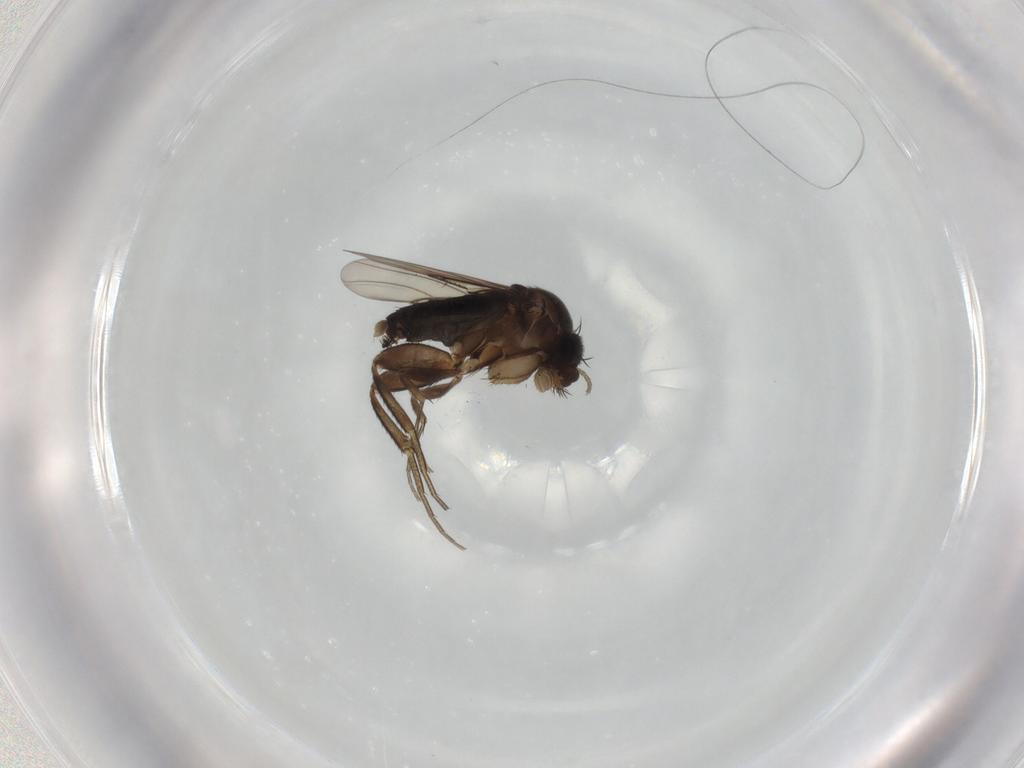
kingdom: Animalia
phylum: Arthropoda
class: Insecta
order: Diptera
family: Phoridae
